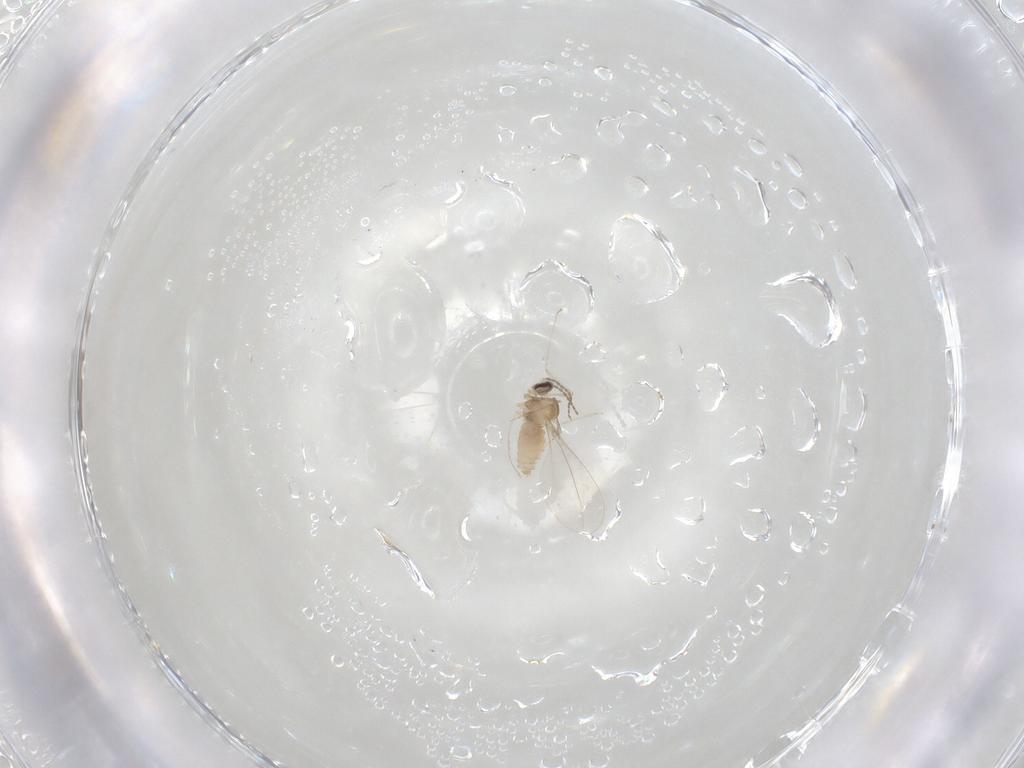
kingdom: Animalia
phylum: Arthropoda
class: Insecta
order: Diptera
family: Cecidomyiidae
